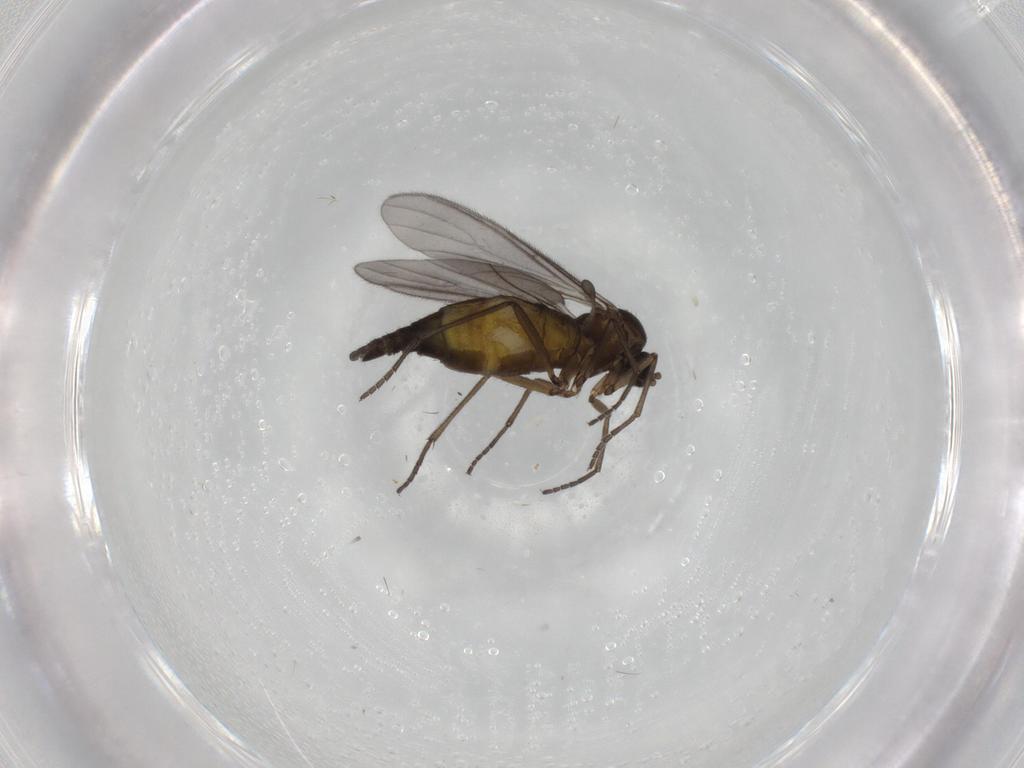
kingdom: Animalia
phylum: Arthropoda
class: Insecta
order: Diptera
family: Sciaridae
